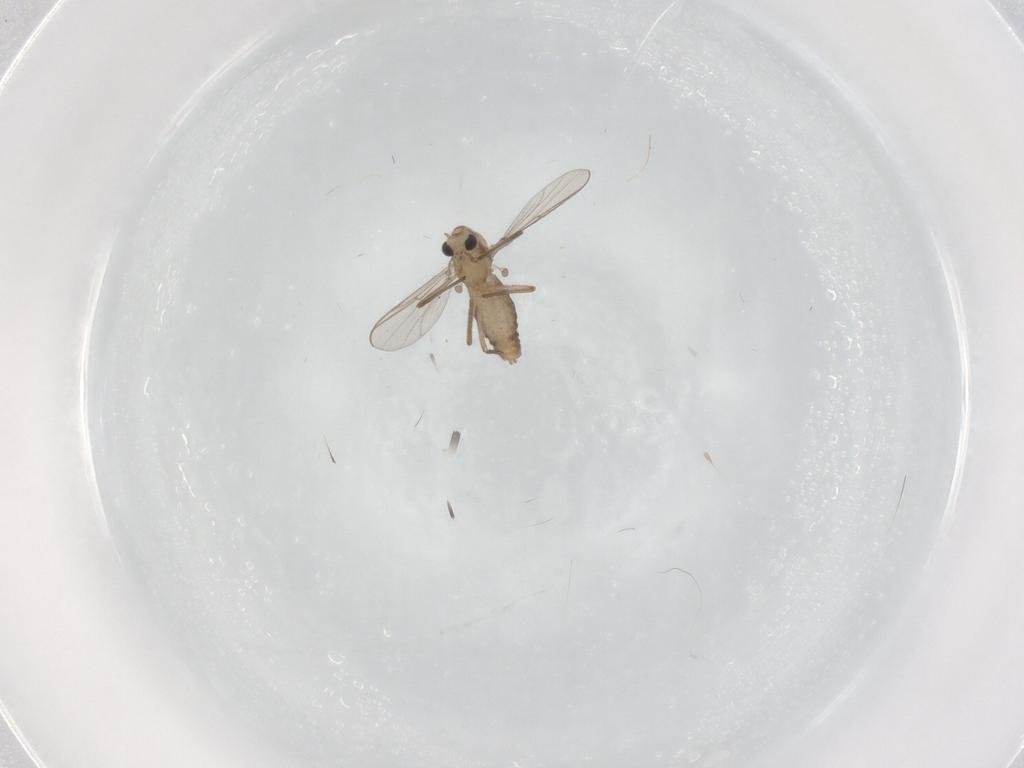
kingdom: Animalia
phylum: Arthropoda
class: Insecta
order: Diptera
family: Chironomidae
